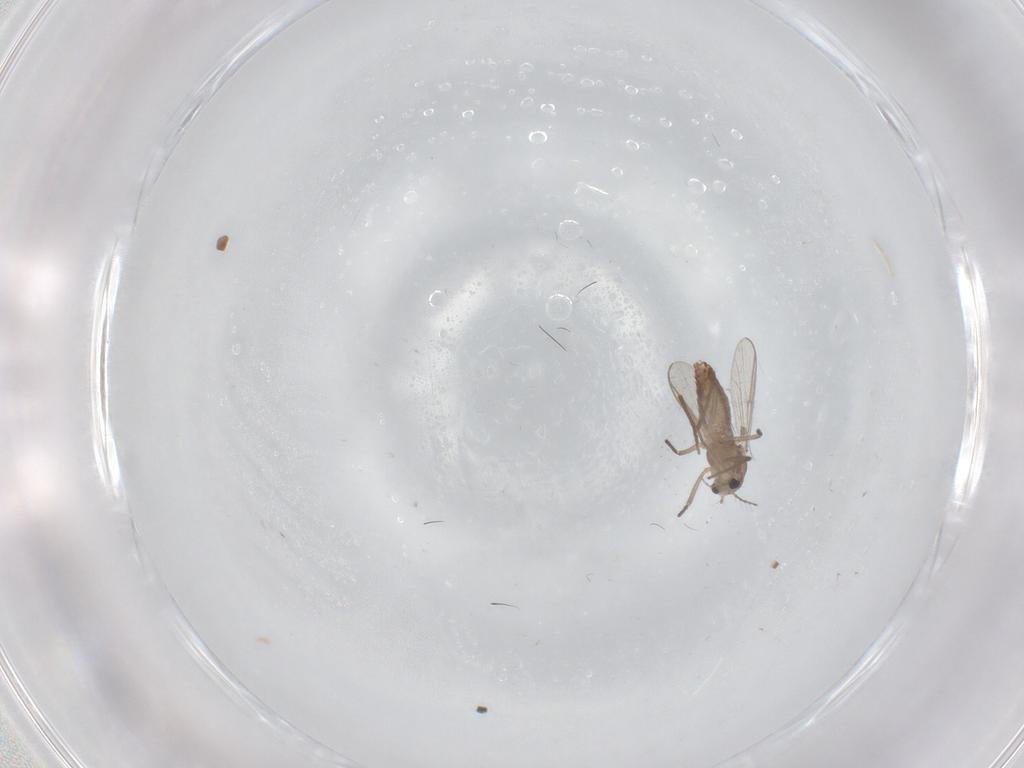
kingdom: Animalia
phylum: Arthropoda
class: Insecta
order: Diptera
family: Chironomidae
